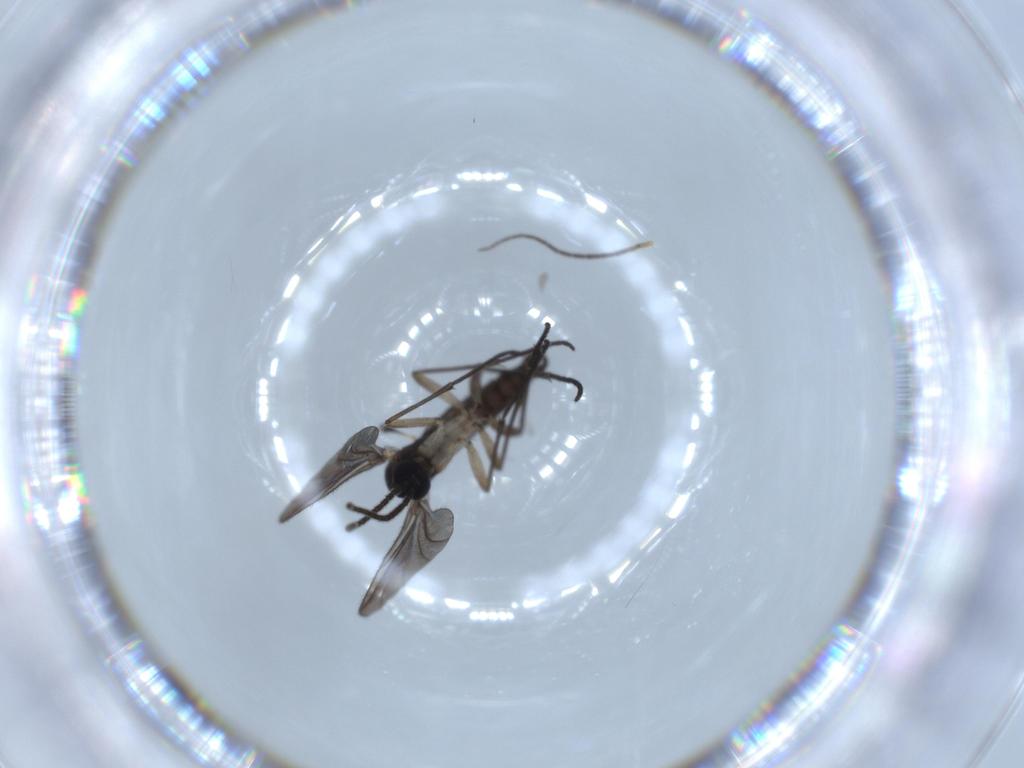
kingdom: Animalia
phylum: Arthropoda
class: Insecta
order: Diptera
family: Sciaridae
